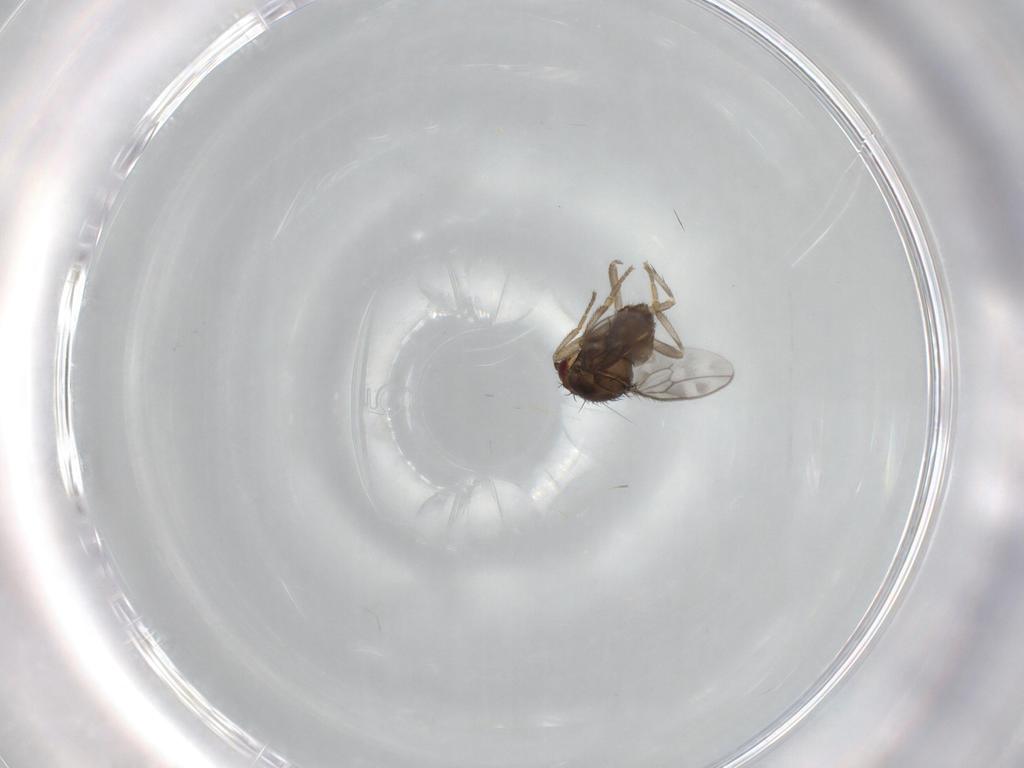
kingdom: Animalia
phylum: Arthropoda
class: Insecta
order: Diptera
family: Sphaeroceridae
